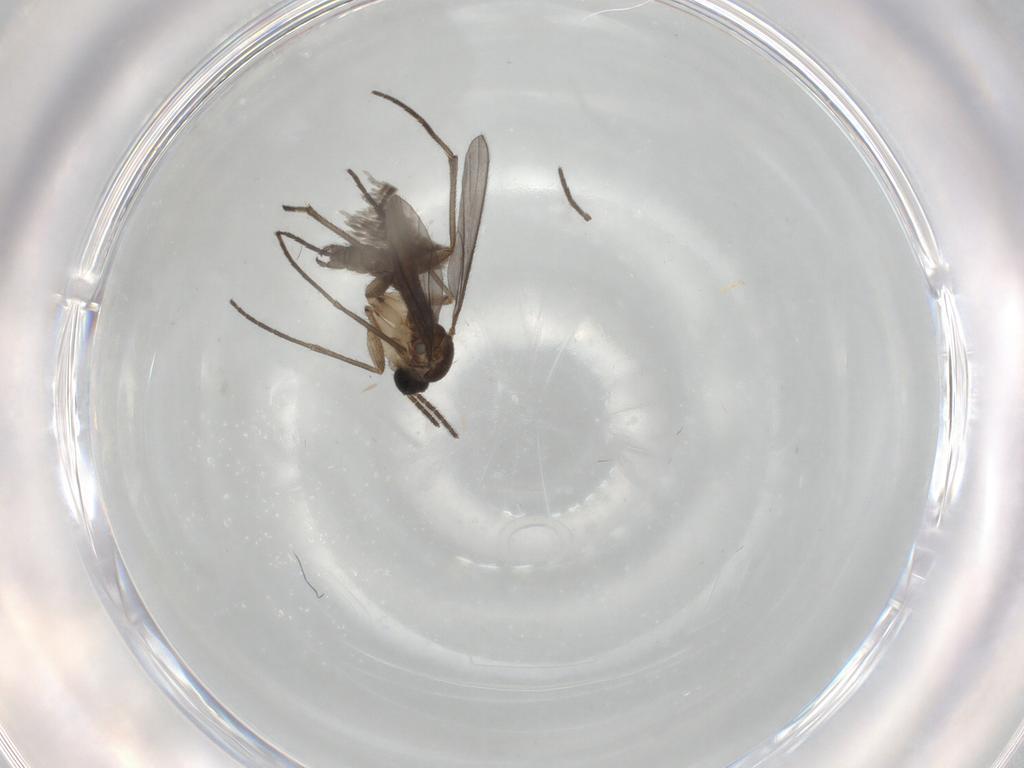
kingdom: Animalia
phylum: Arthropoda
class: Insecta
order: Diptera
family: Sciaridae
